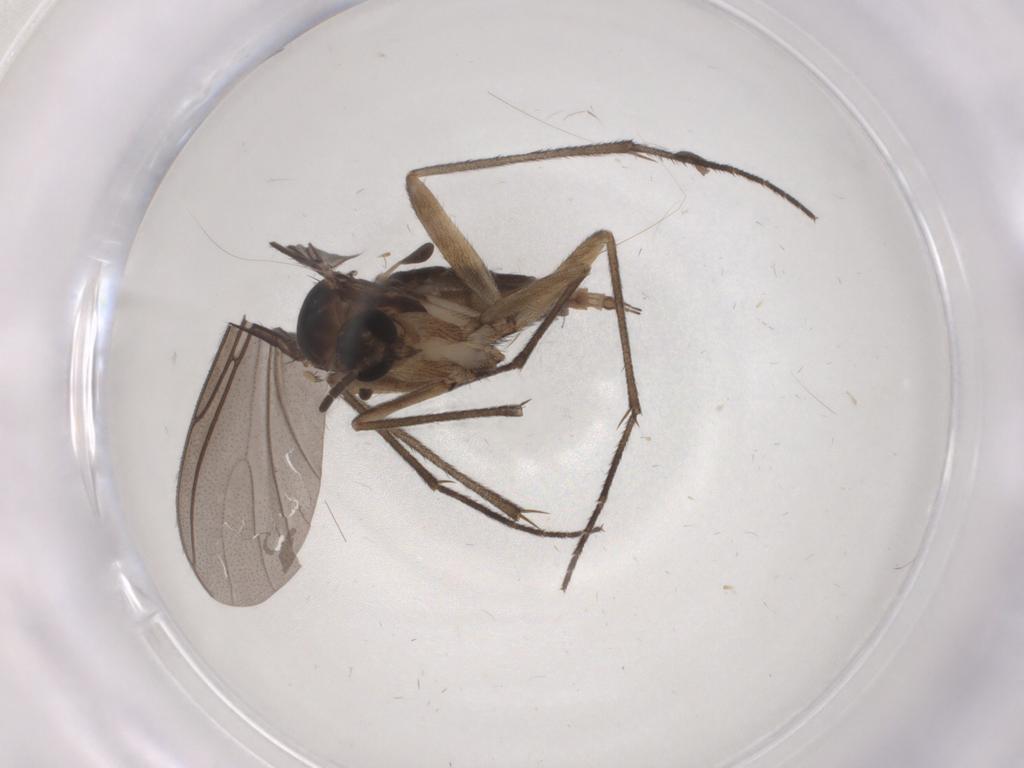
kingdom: Animalia
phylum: Arthropoda
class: Insecta
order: Diptera
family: Sciaridae
